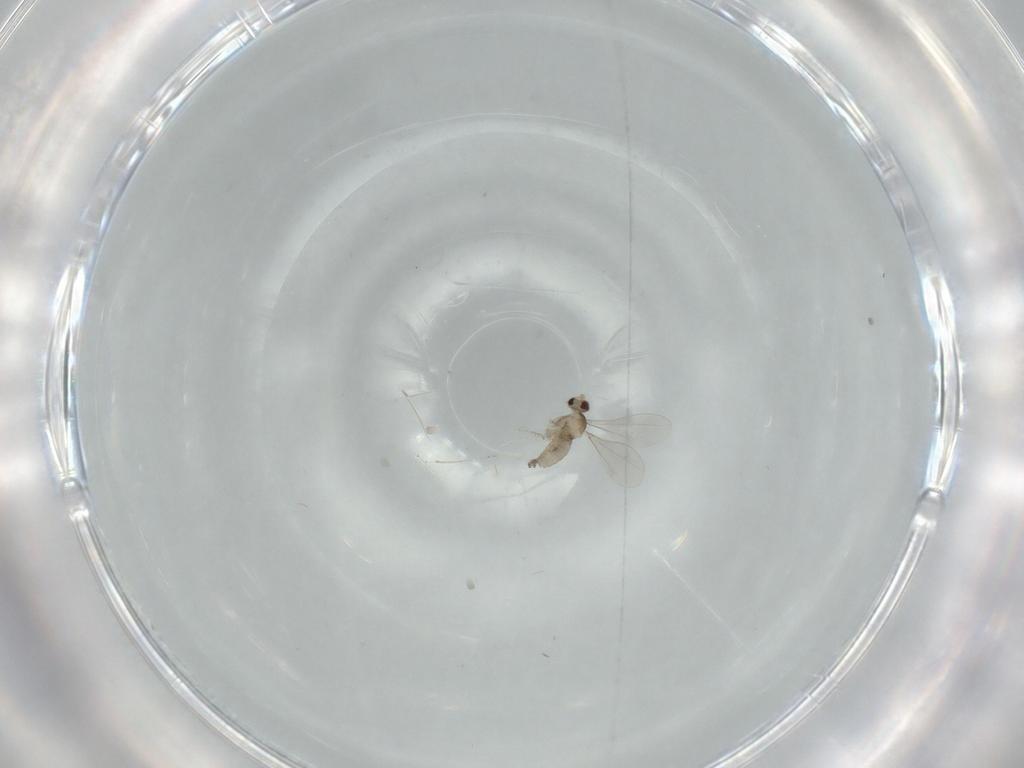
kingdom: Animalia
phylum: Arthropoda
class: Insecta
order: Diptera
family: Cecidomyiidae
